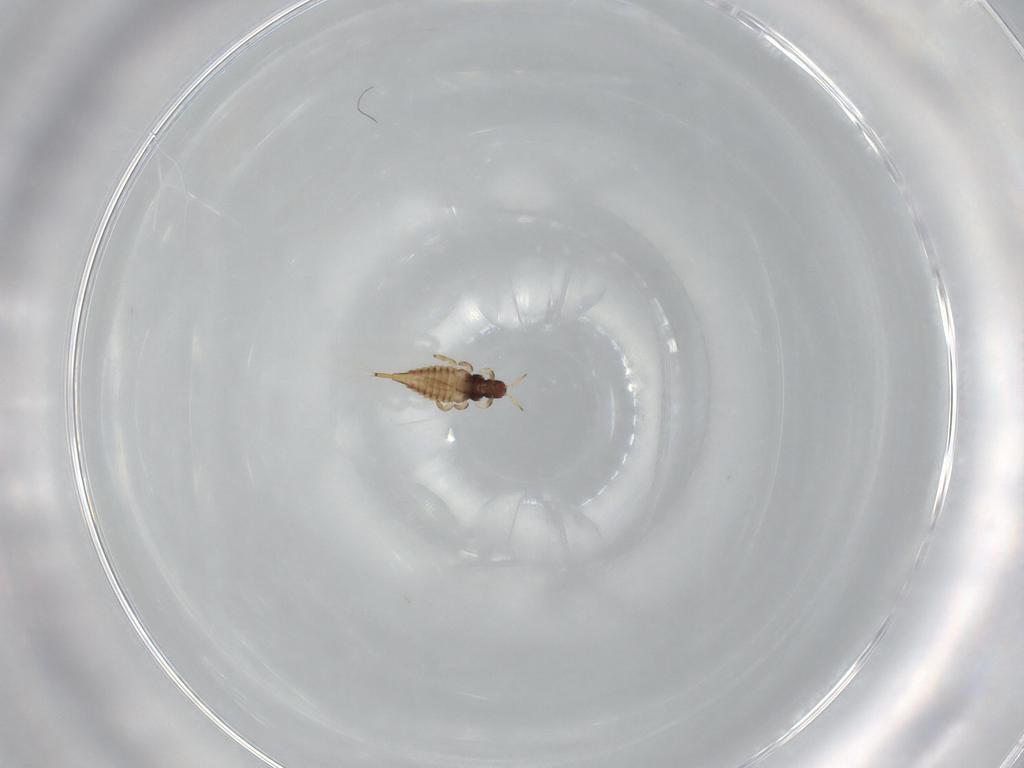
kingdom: Animalia
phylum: Arthropoda
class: Insecta
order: Thysanoptera
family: Phlaeothripidae
